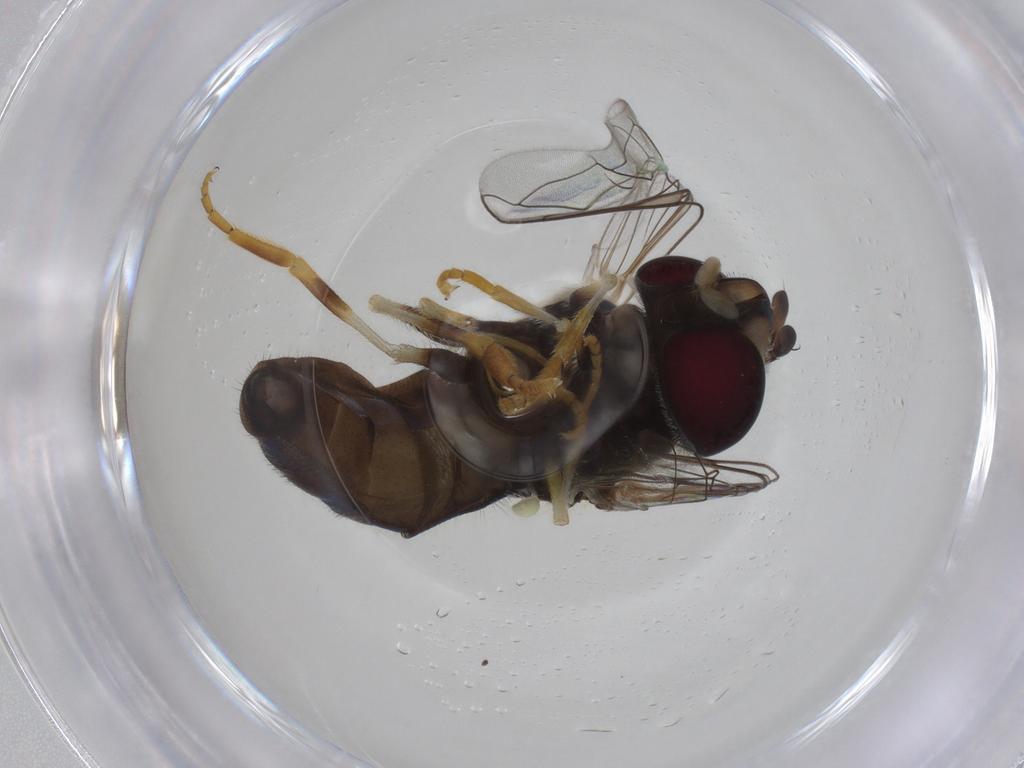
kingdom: Animalia
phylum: Arthropoda
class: Insecta
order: Diptera
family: Syrphidae
